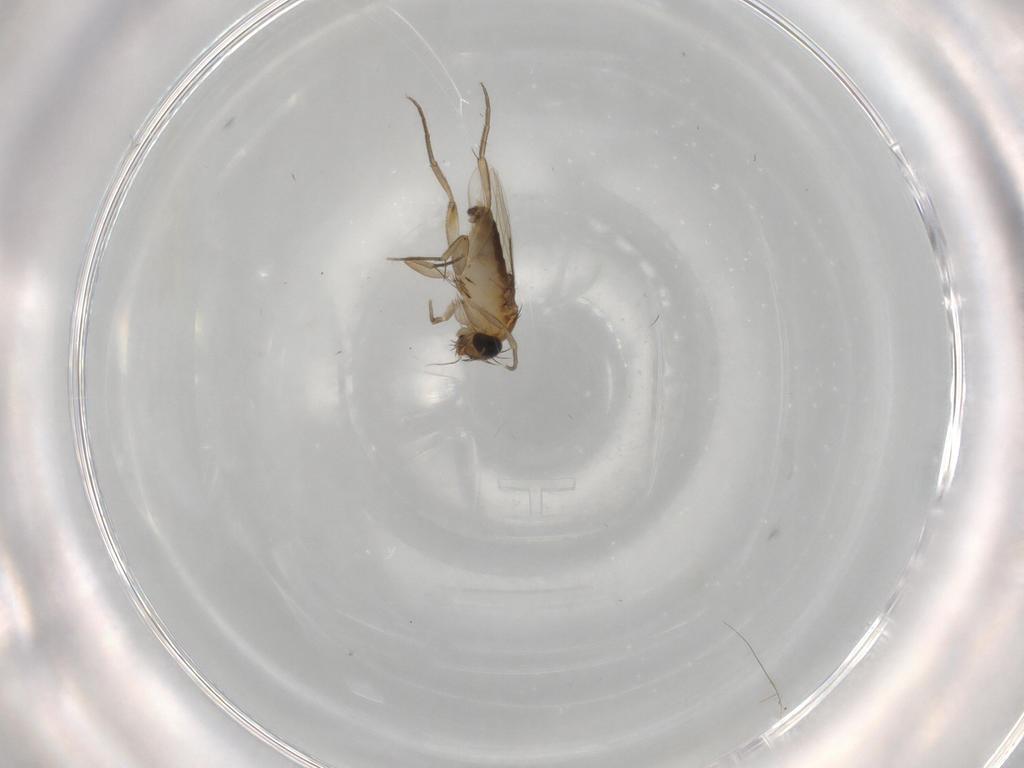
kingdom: Animalia
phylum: Arthropoda
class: Insecta
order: Diptera
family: Phoridae
